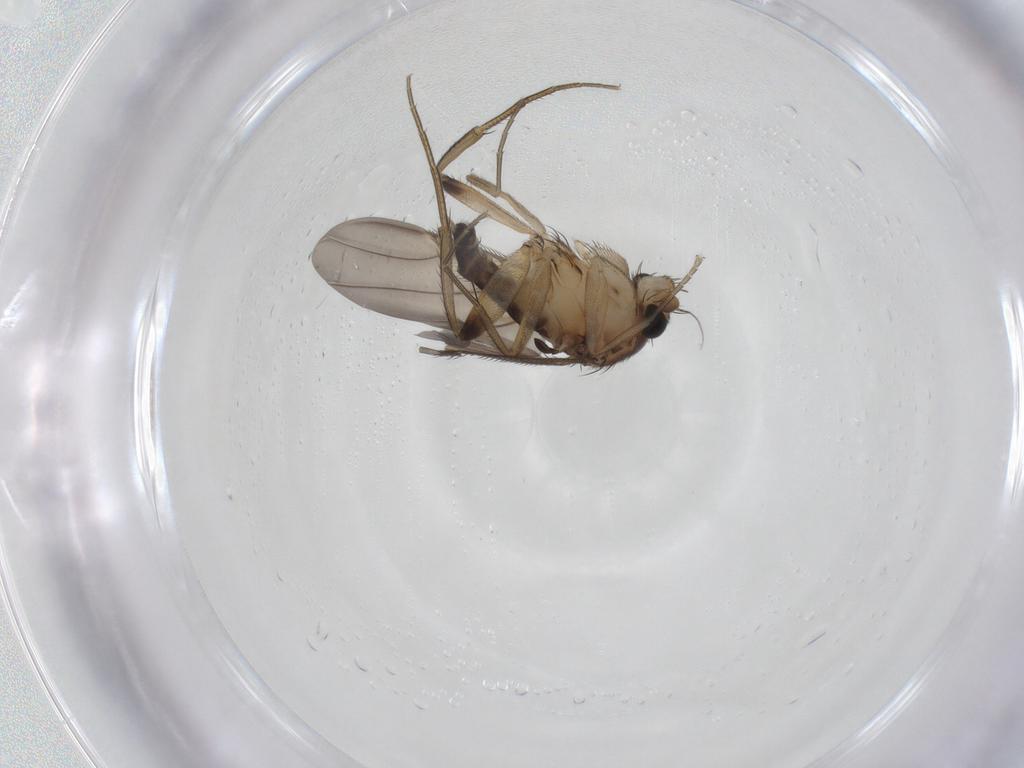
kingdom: Animalia
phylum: Arthropoda
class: Insecta
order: Diptera
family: Phoridae
